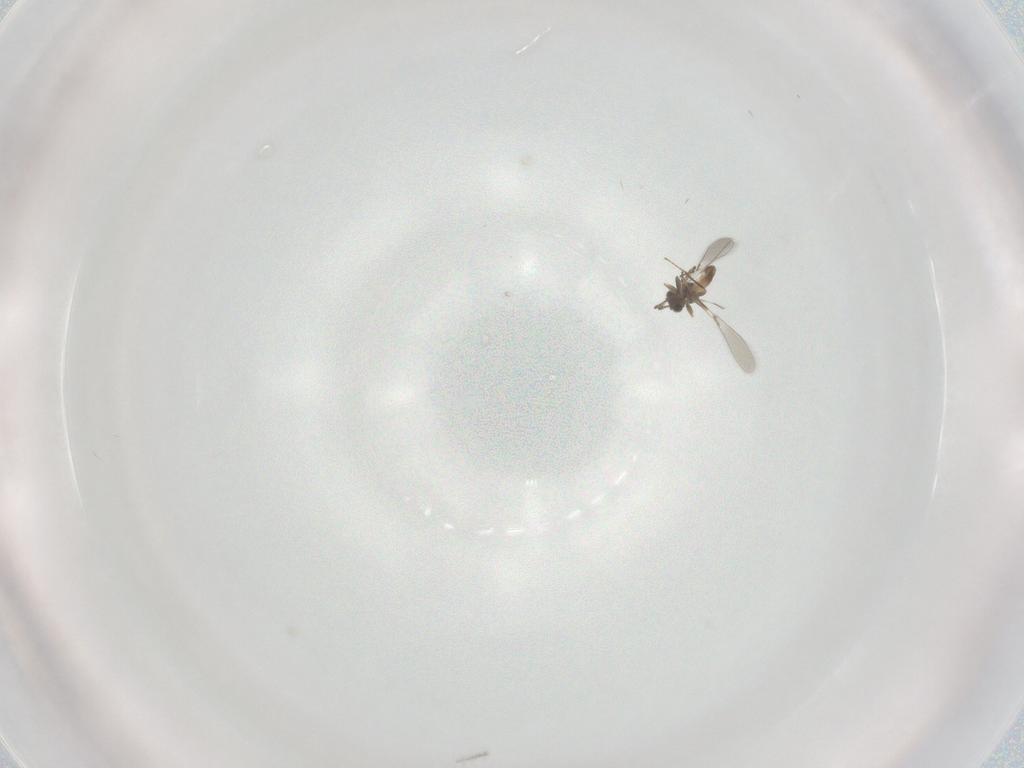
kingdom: Animalia
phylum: Arthropoda
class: Insecta
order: Hymenoptera
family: Mymaridae
